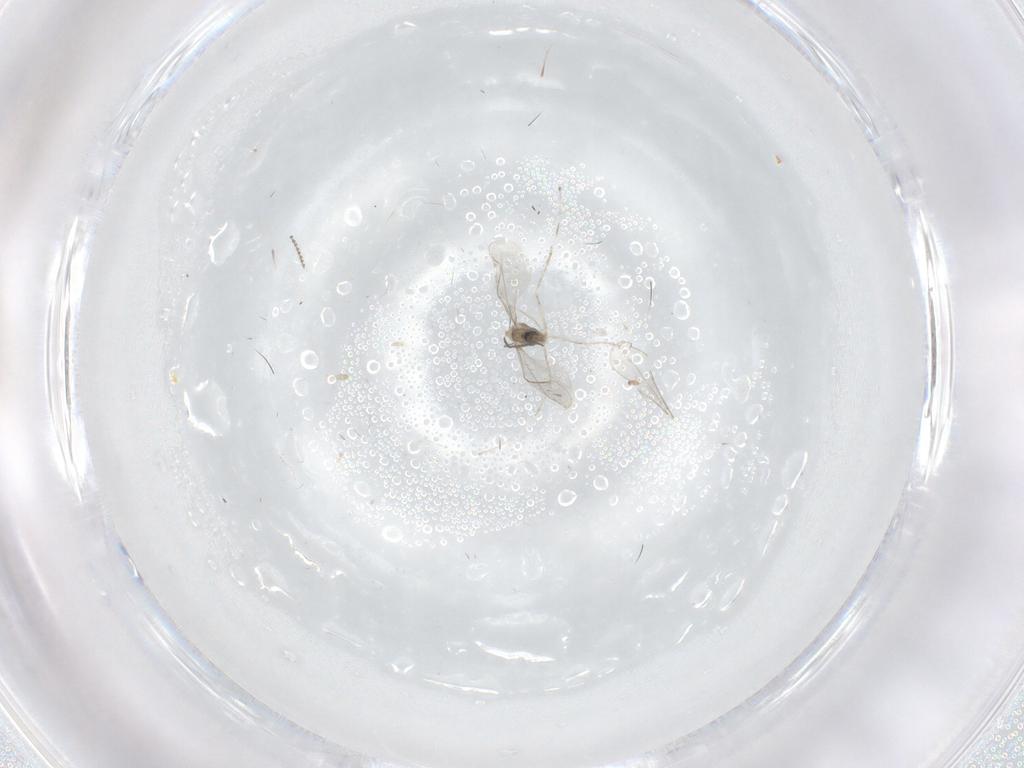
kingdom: Animalia
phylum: Arthropoda
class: Insecta
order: Diptera
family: Cecidomyiidae
